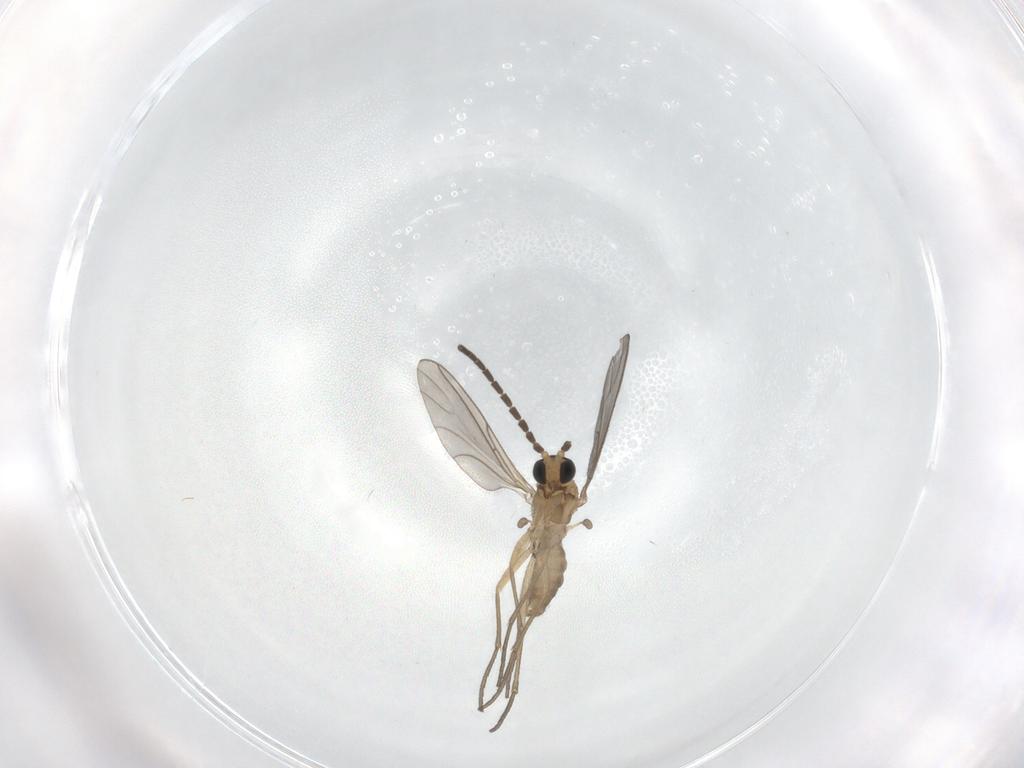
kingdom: Animalia
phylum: Arthropoda
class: Insecta
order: Diptera
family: Sciaridae
